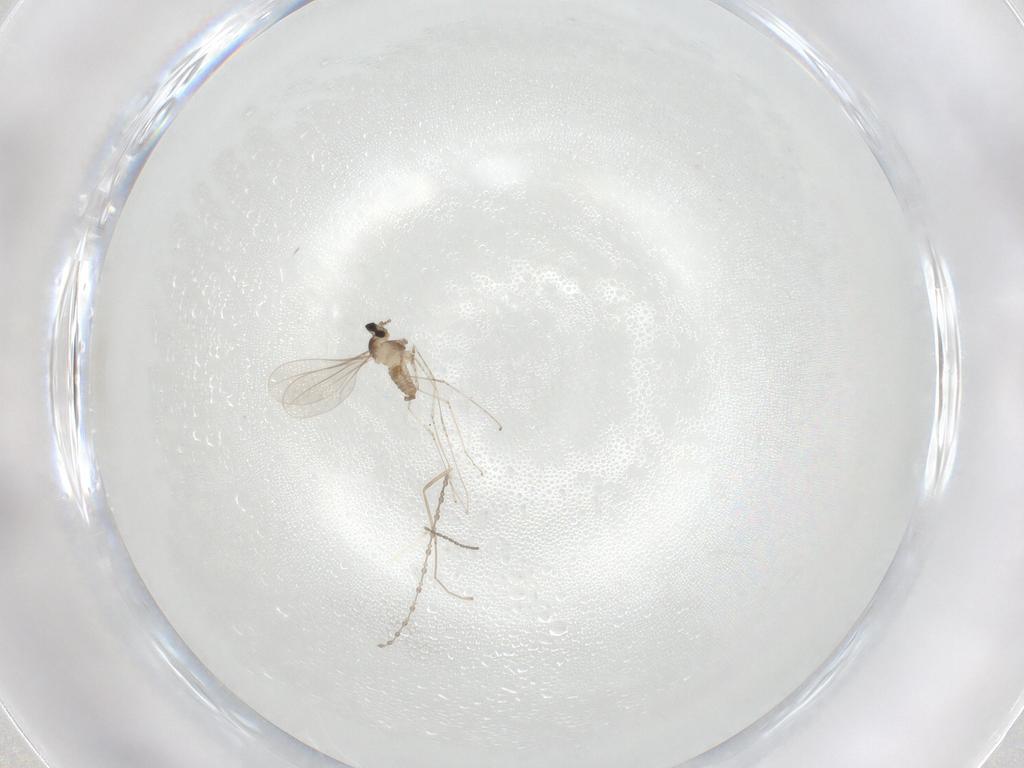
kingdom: Animalia
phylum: Arthropoda
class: Insecta
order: Diptera
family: Cecidomyiidae
